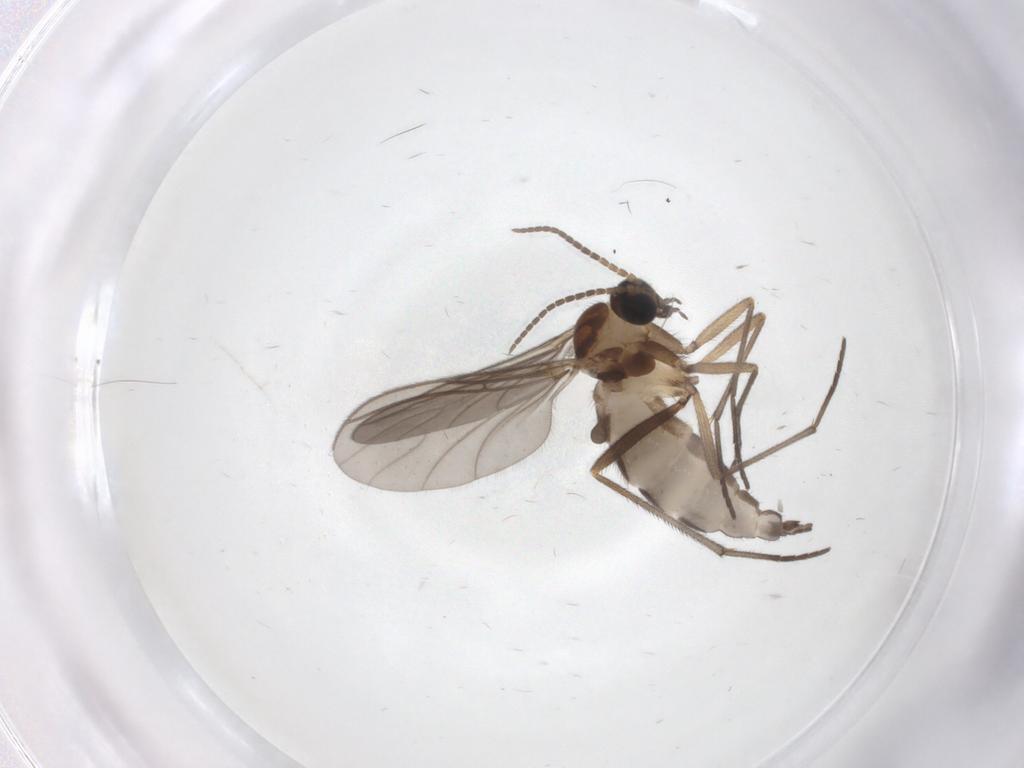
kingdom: Animalia
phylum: Arthropoda
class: Insecta
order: Diptera
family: Sciaridae
